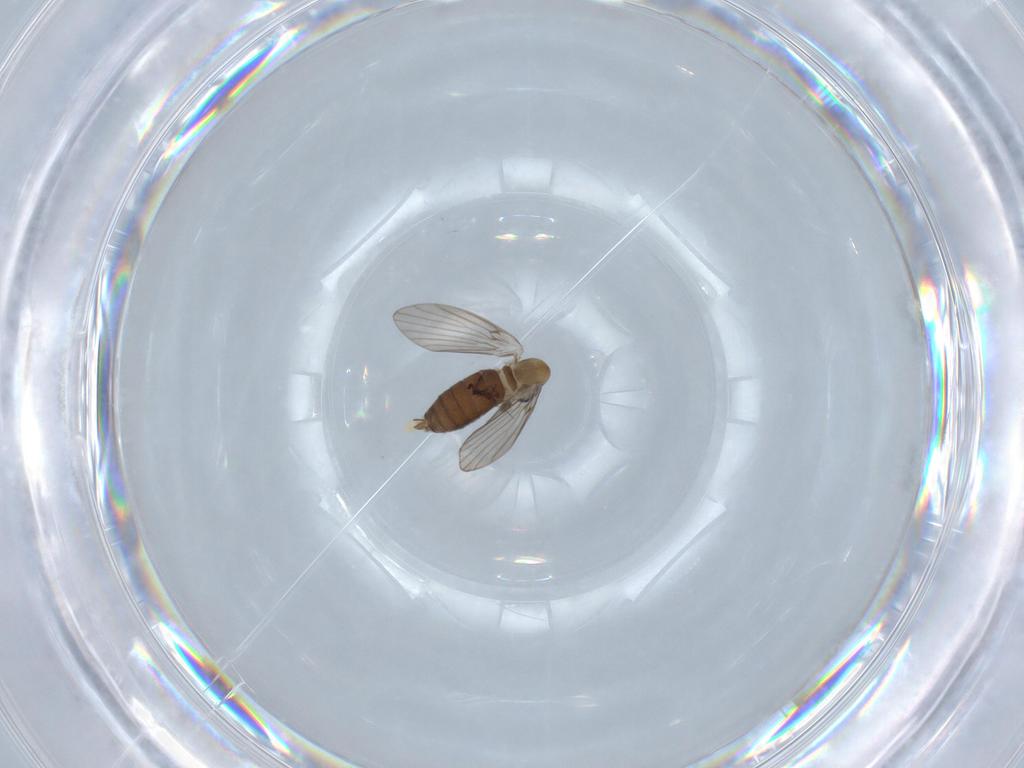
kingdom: Animalia
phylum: Arthropoda
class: Insecta
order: Diptera
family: Psychodidae
